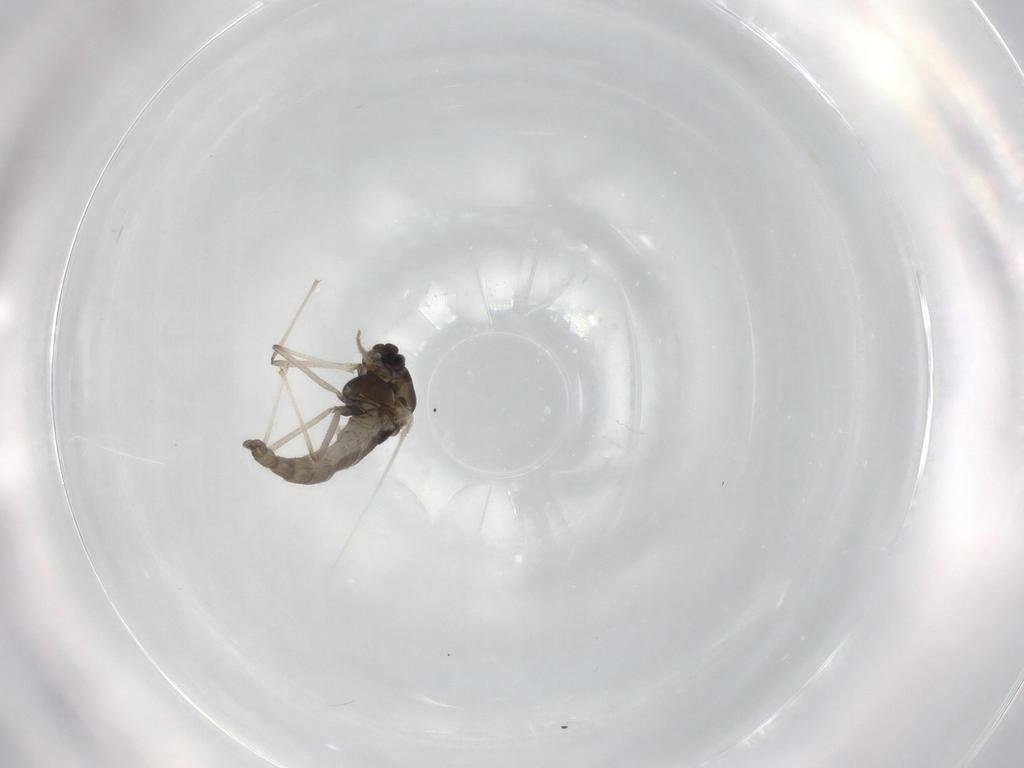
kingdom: Animalia
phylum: Arthropoda
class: Insecta
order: Diptera
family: Chironomidae
